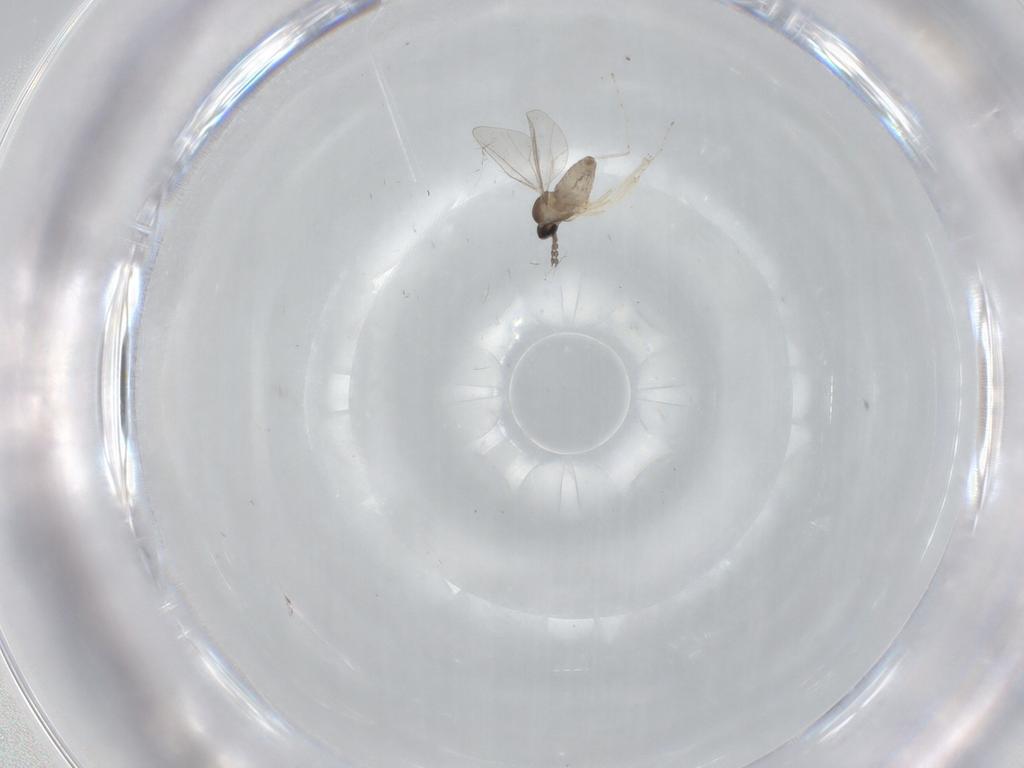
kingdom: Animalia
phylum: Arthropoda
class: Insecta
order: Diptera
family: Cecidomyiidae
